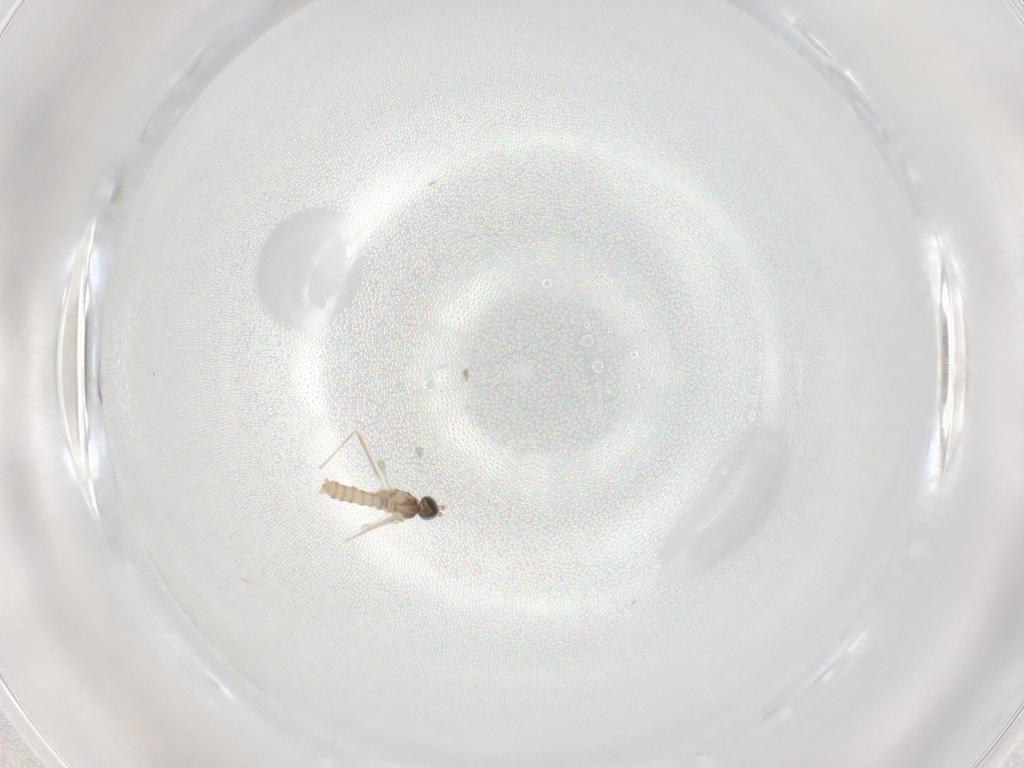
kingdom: Animalia
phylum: Arthropoda
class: Insecta
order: Diptera
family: Cecidomyiidae
